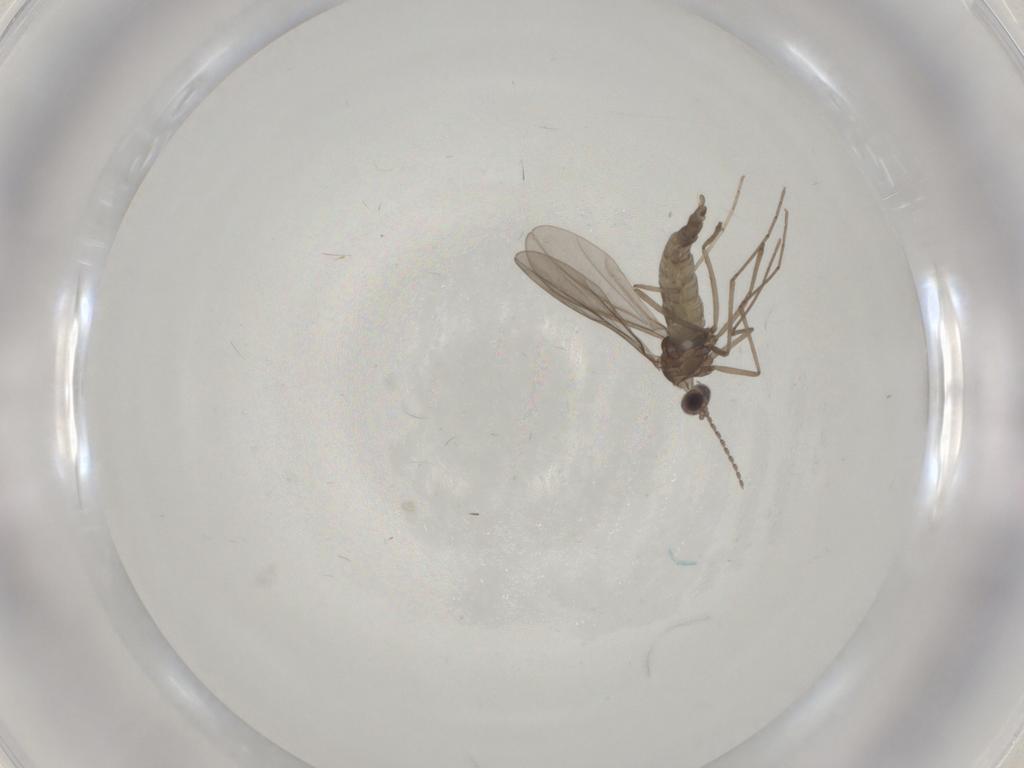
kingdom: Animalia
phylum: Arthropoda
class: Insecta
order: Diptera
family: Cecidomyiidae
